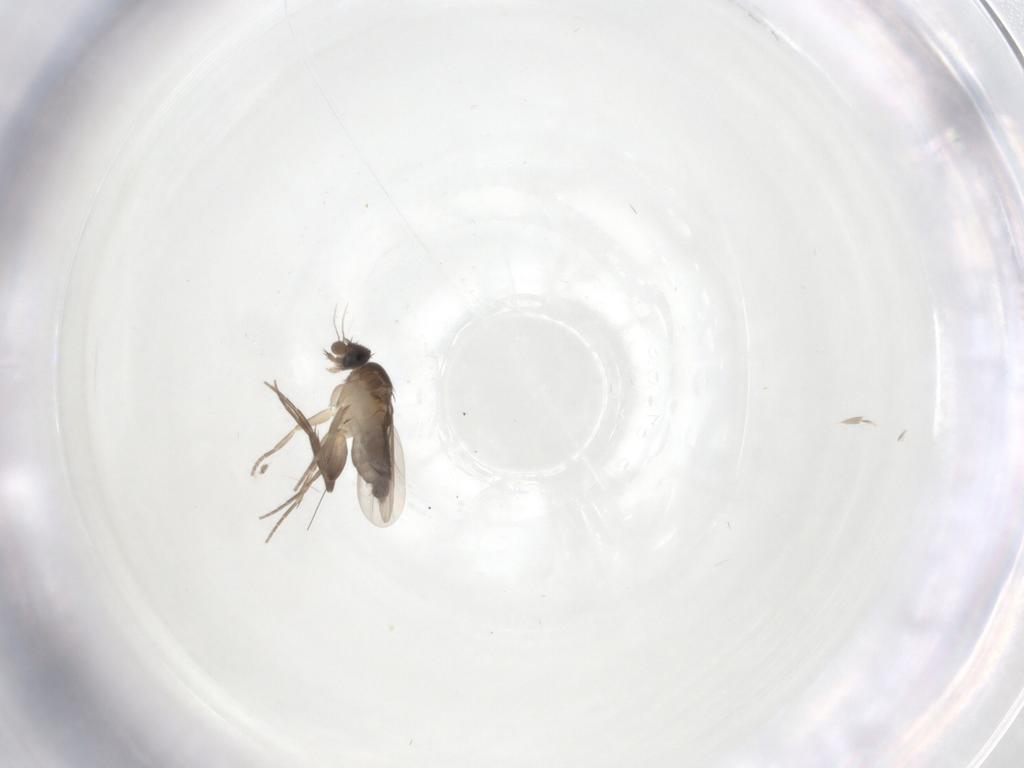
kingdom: Animalia
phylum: Arthropoda
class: Insecta
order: Diptera
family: Phoridae
